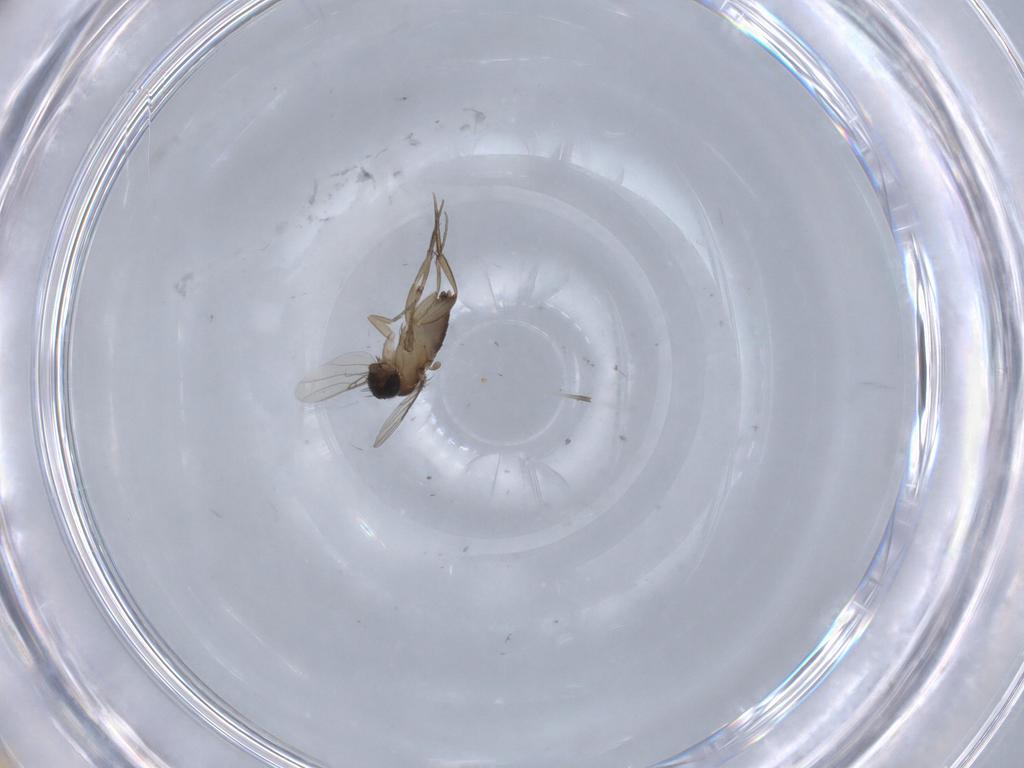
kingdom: Animalia
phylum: Arthropoda
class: Insecta
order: Diptera
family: Phoridae
